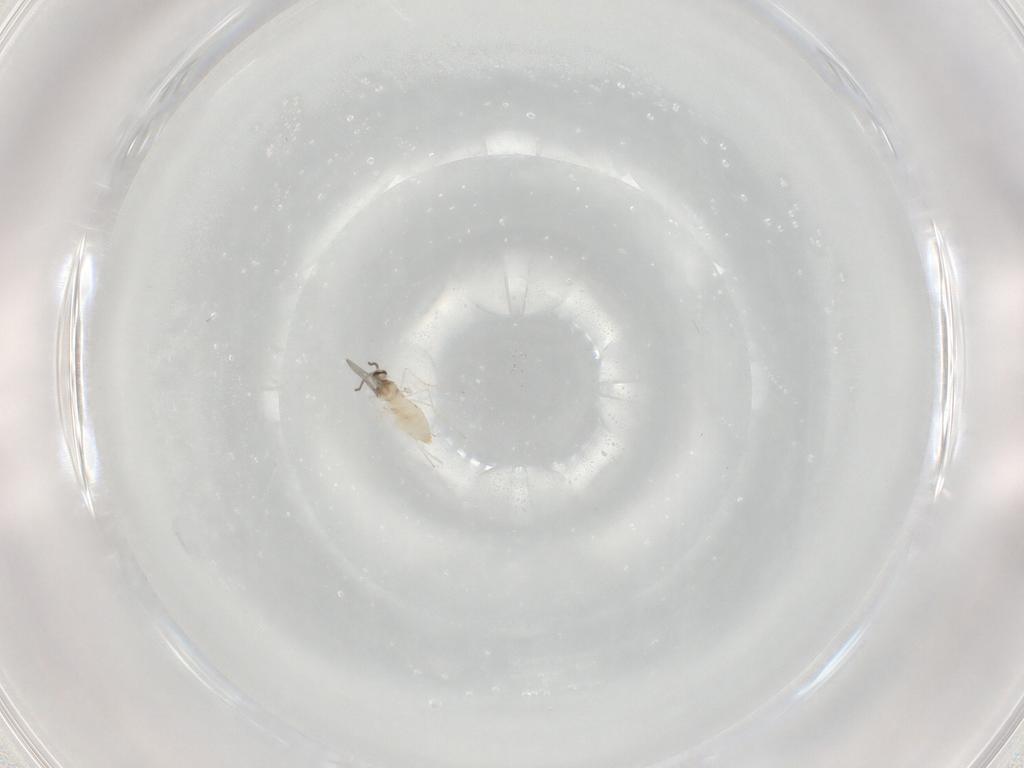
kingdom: Animalia
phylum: Arthropoda
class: Insecta
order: Diptera
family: Cecidomyiidae
